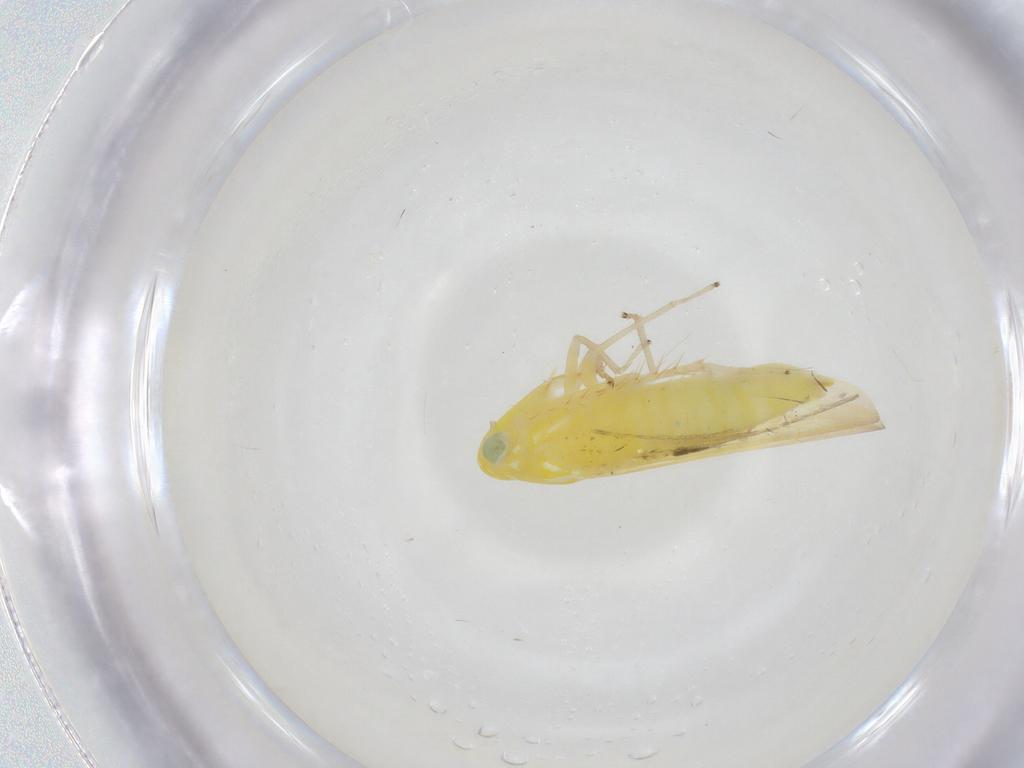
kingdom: Animalia
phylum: Arthropoda
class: Insecta
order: Hemiptera
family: Cicadellidae
